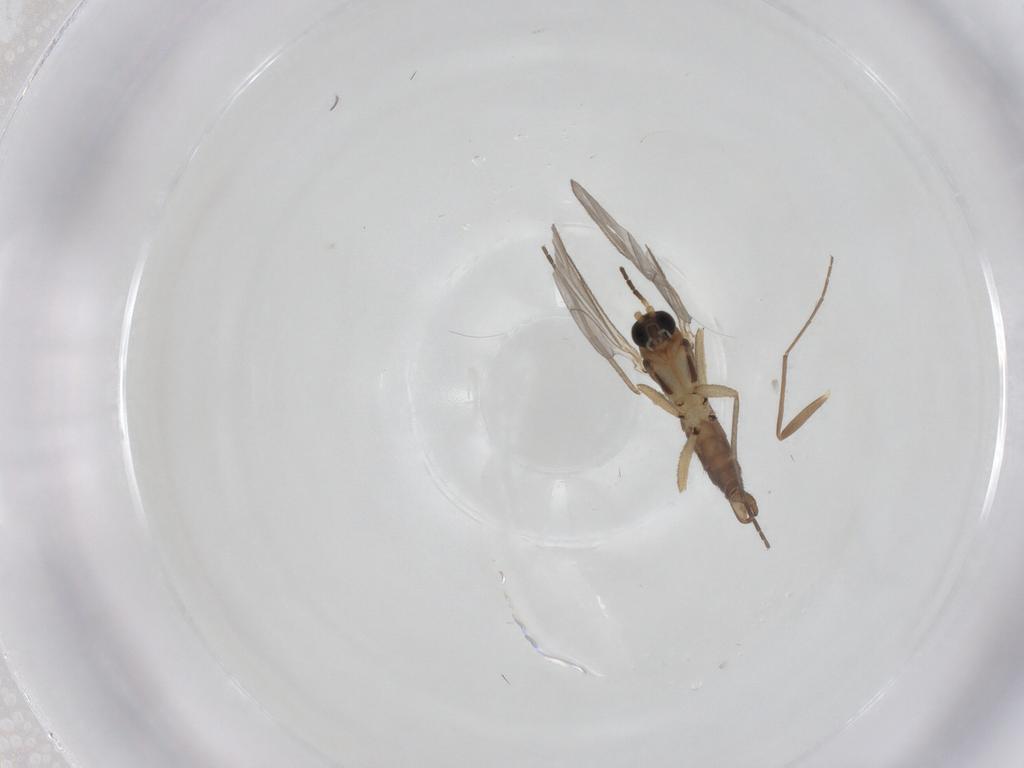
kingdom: Animalia
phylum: Arthropoda
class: Insecta
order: Diptera
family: Chironomidae
